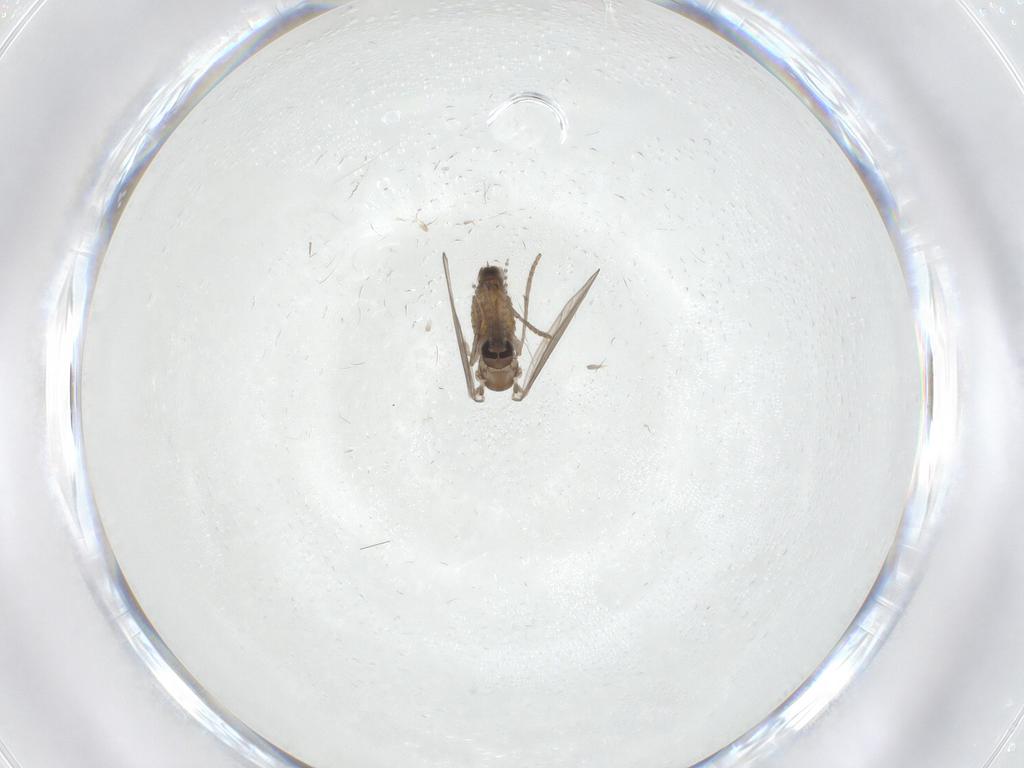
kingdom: Animalia
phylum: Arthropoda
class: Insecta
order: Diptera
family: Psychodidae
